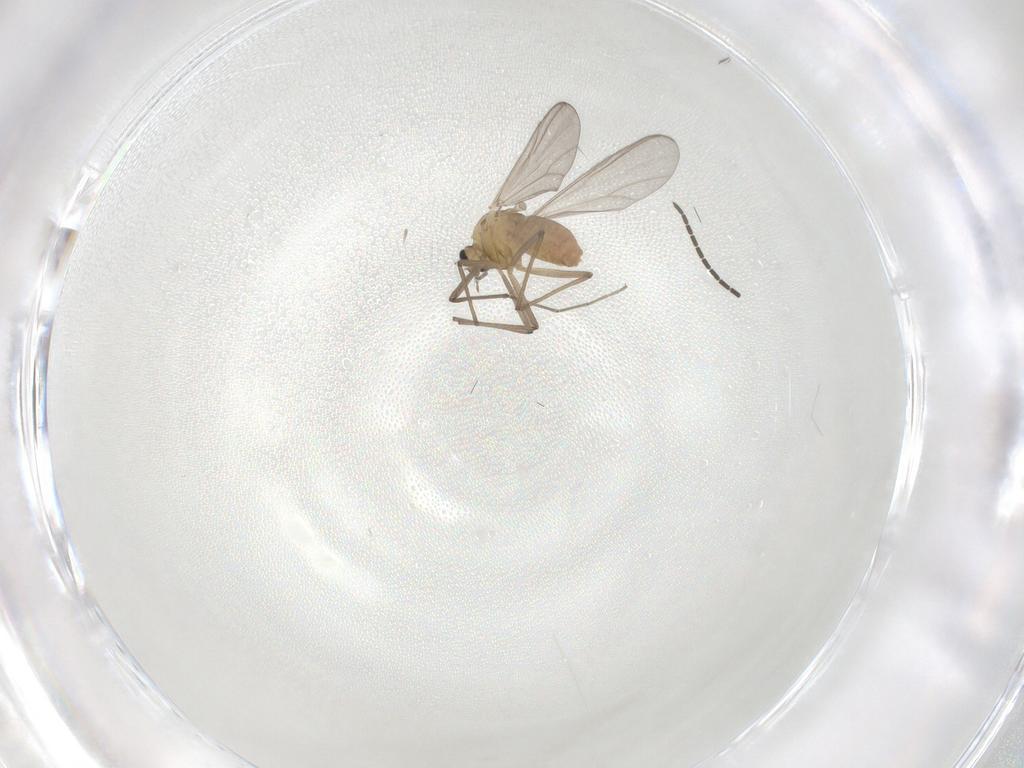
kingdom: Animalia
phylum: Arthropoda
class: Insecta
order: Diptera
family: Chironomidae
